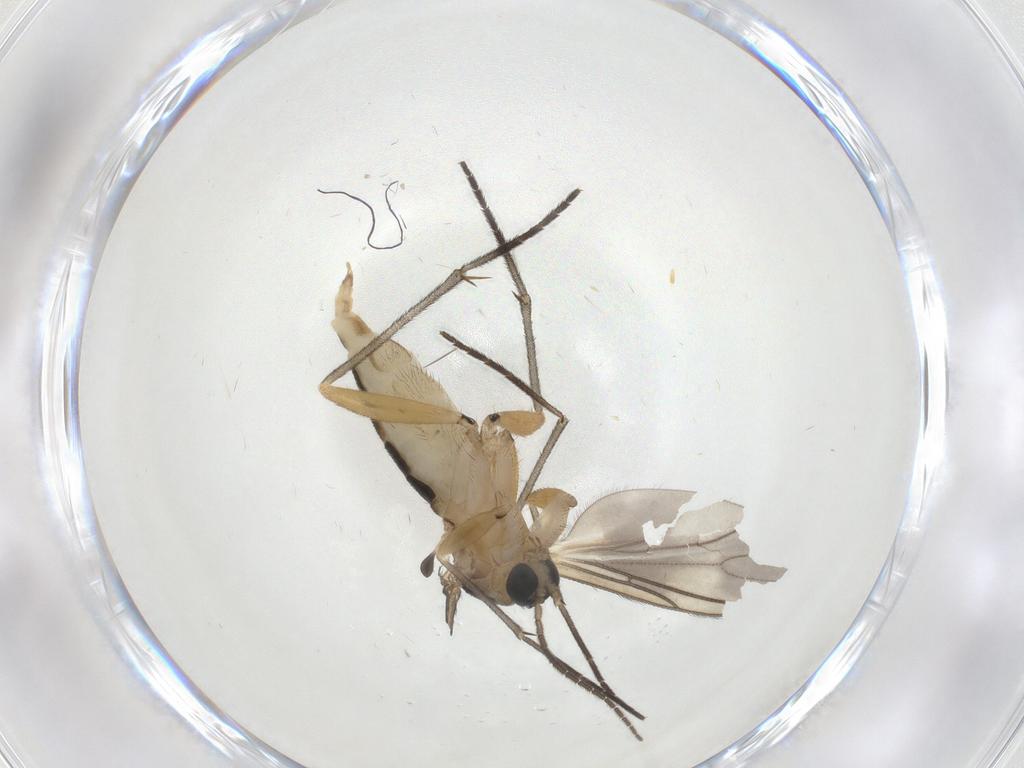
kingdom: Animalia
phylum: Arthropoda
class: Insecta
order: Diptera
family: Sciaridae
